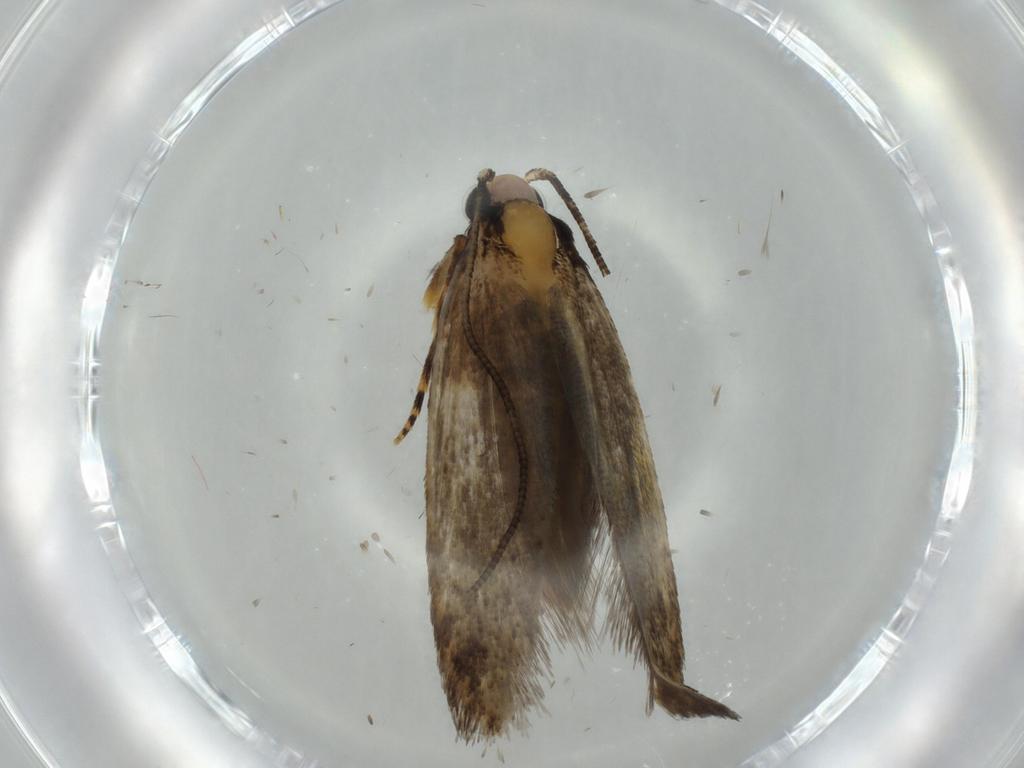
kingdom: Animalia
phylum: Arthropoda
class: Insecta
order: Lepidoptera
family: Tineidae
